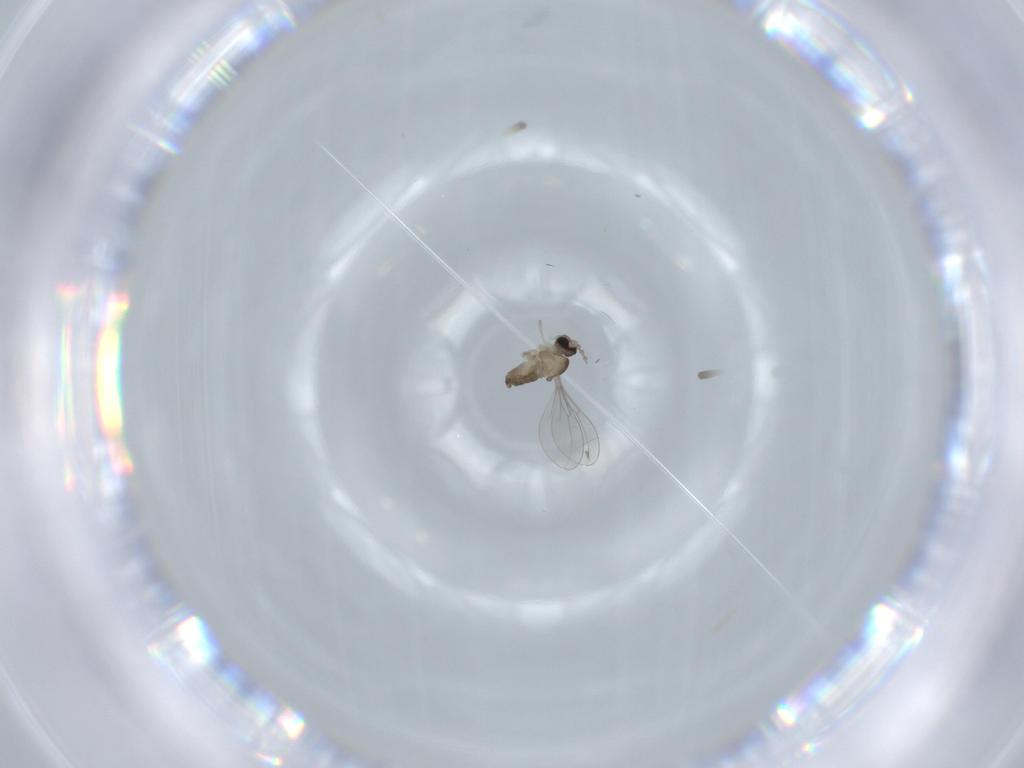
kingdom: Animalia
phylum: Arthropoda
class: Insecta
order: Diptera
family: Cecidomyiidae
